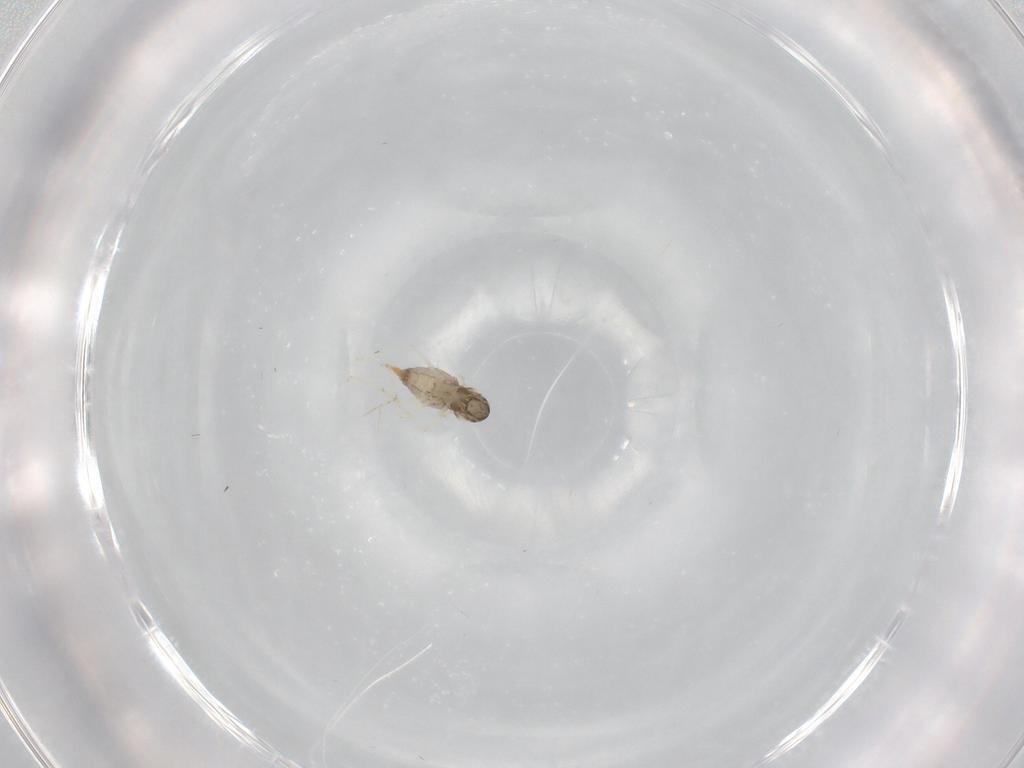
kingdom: Animalia
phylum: Arthropoda
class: Insecta
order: Diptera
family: Cecidomyiidae
